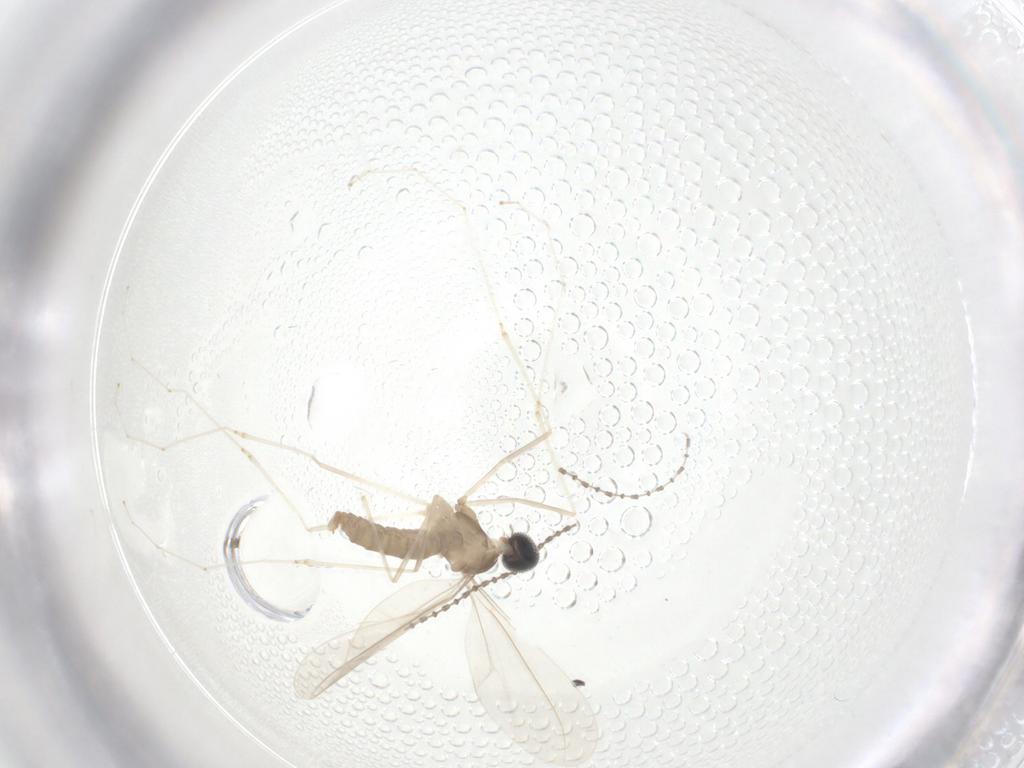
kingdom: Animalia
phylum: Arthropoda
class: Insecta
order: Diptera
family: Cecidomyiidae
